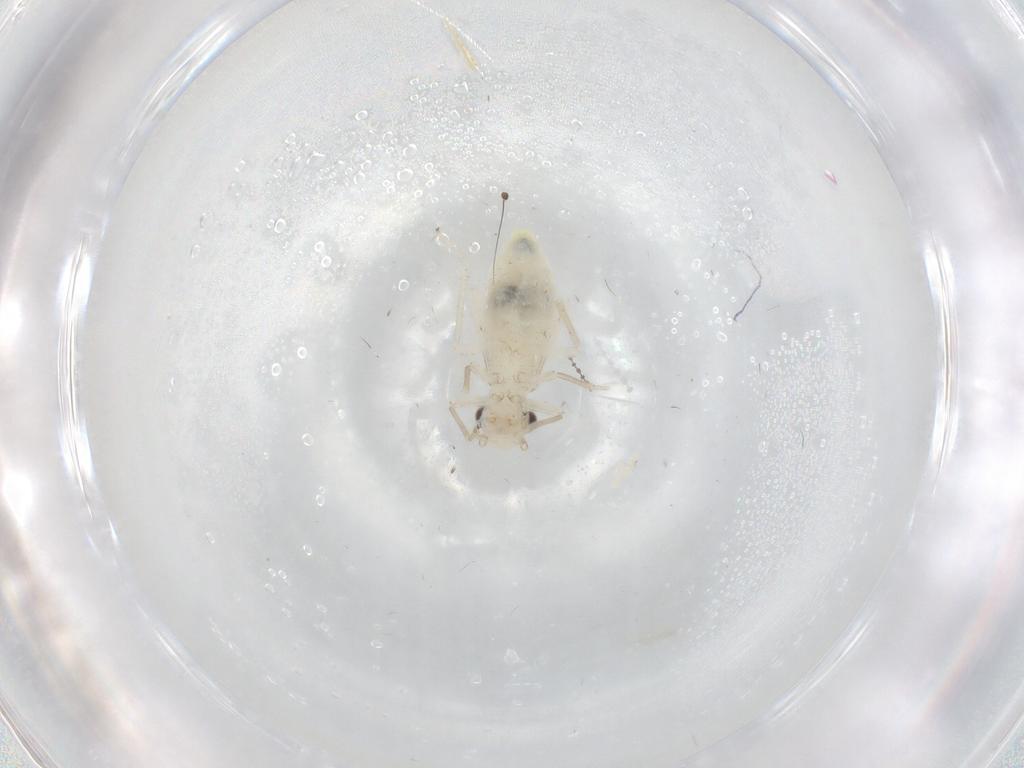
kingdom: Animalia
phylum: Arthropoda
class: Insecta
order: Psocodea
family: Caeciliusidae
